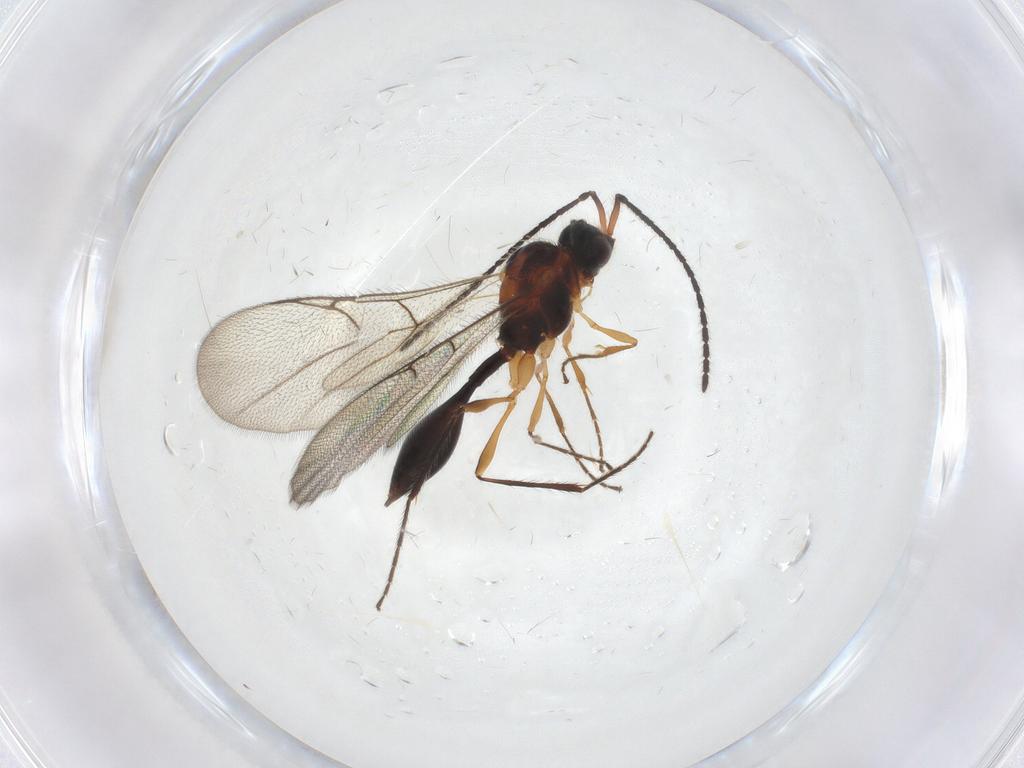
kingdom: Animalia
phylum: Arthropoda
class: Insecta
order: Hymenoptera
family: Diapriidae
